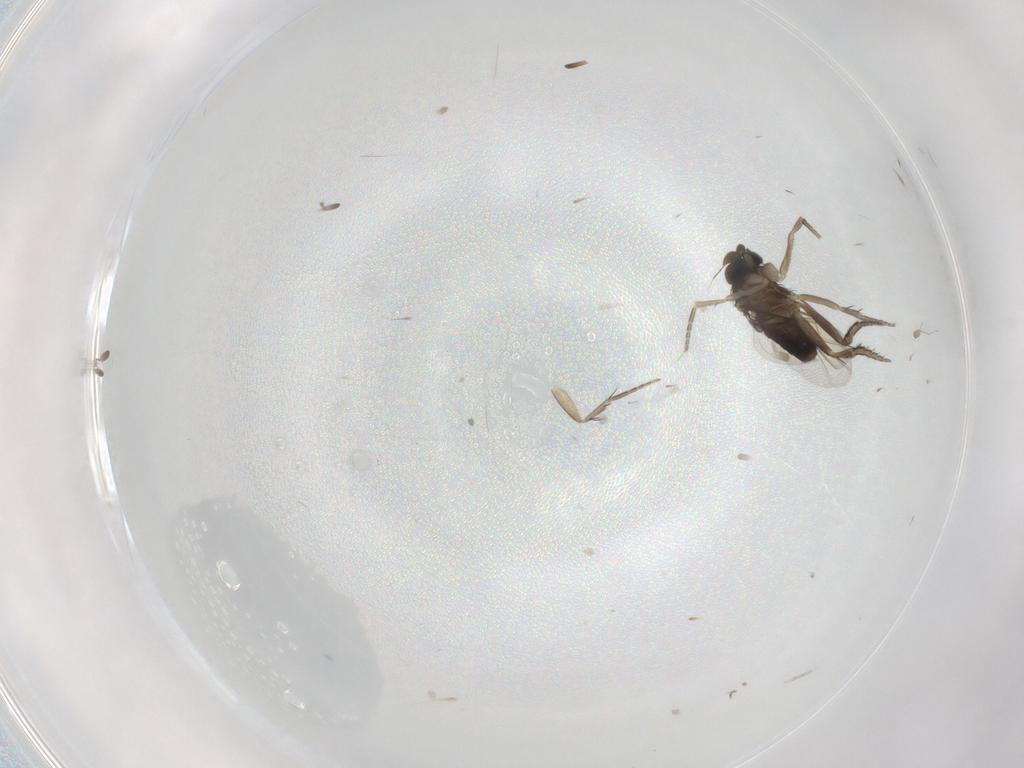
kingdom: Animalia
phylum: Arthropoda
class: Insecta
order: Diptera
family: Phoridae
